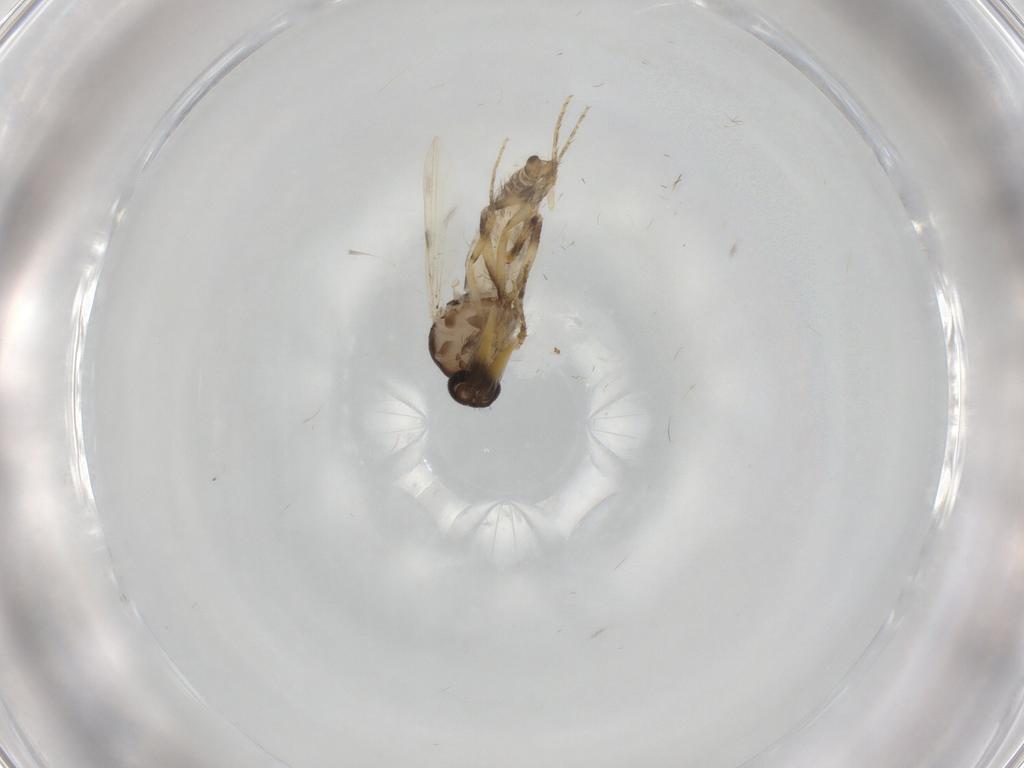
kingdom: Animalia
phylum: Arthropoda
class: Insecta
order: Diptera
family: Ceratopogonidae
